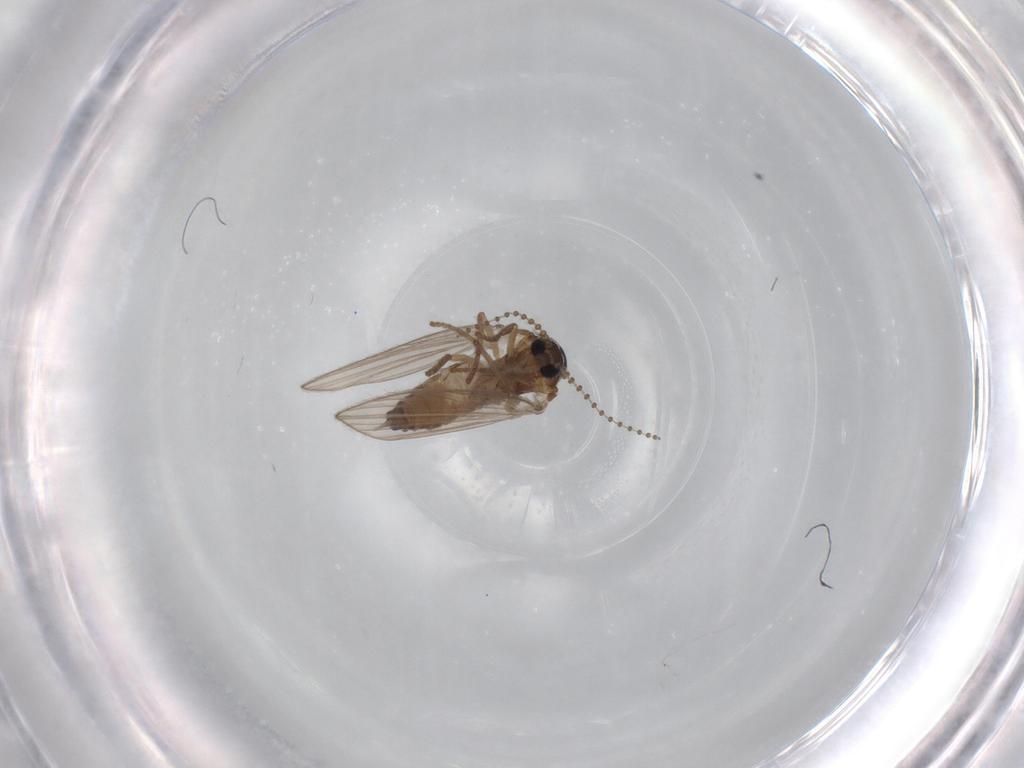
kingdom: Animalia
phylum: Arthropoda
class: Insecta
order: Diptera
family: Psychodidae
